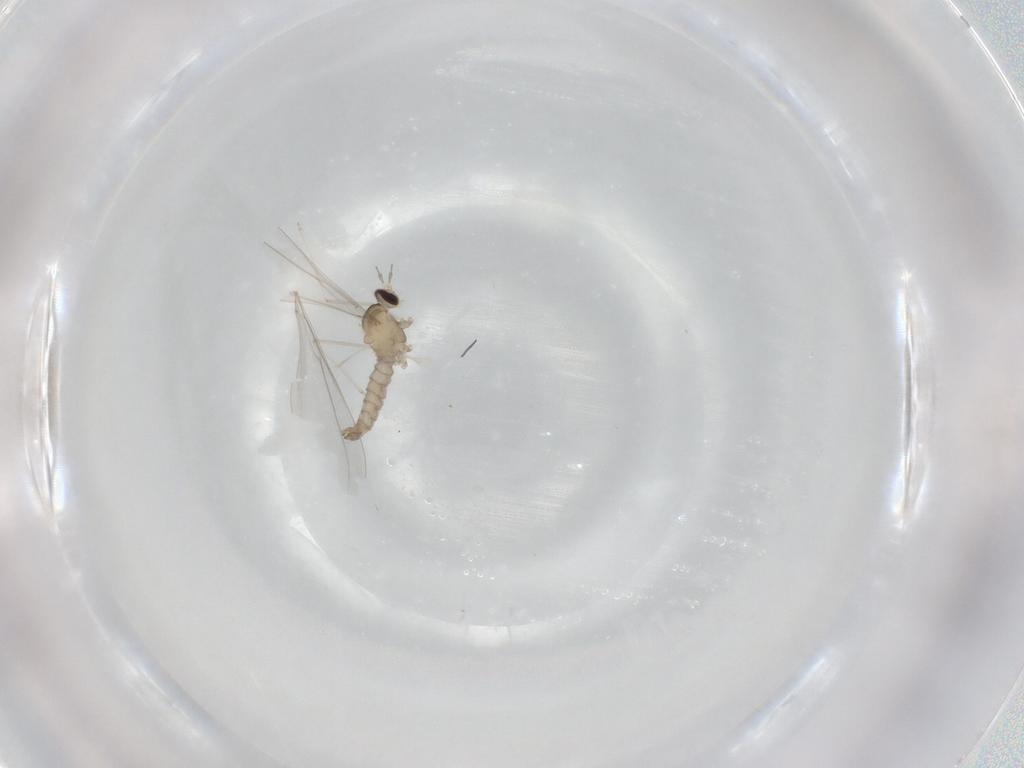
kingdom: Animalia
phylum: Arthropoda
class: Insecta
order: Diptera
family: Cecidomyiidae
